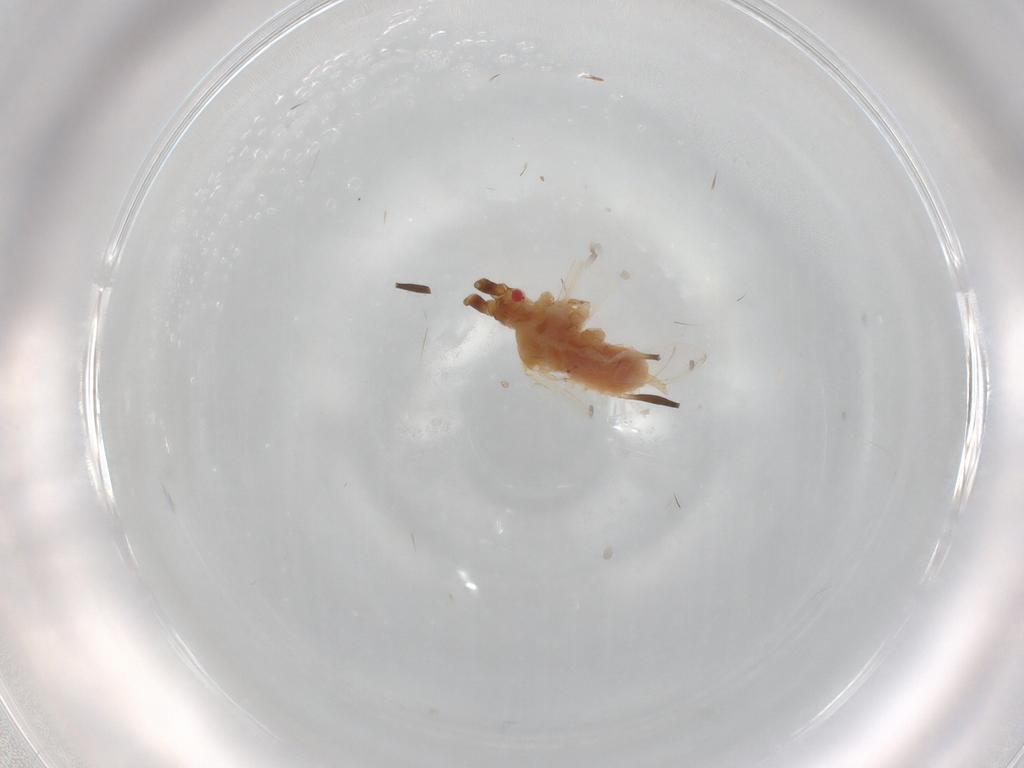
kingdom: Animalia
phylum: Arthropoda
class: Insecta
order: Hemiptera
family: Aphididae
